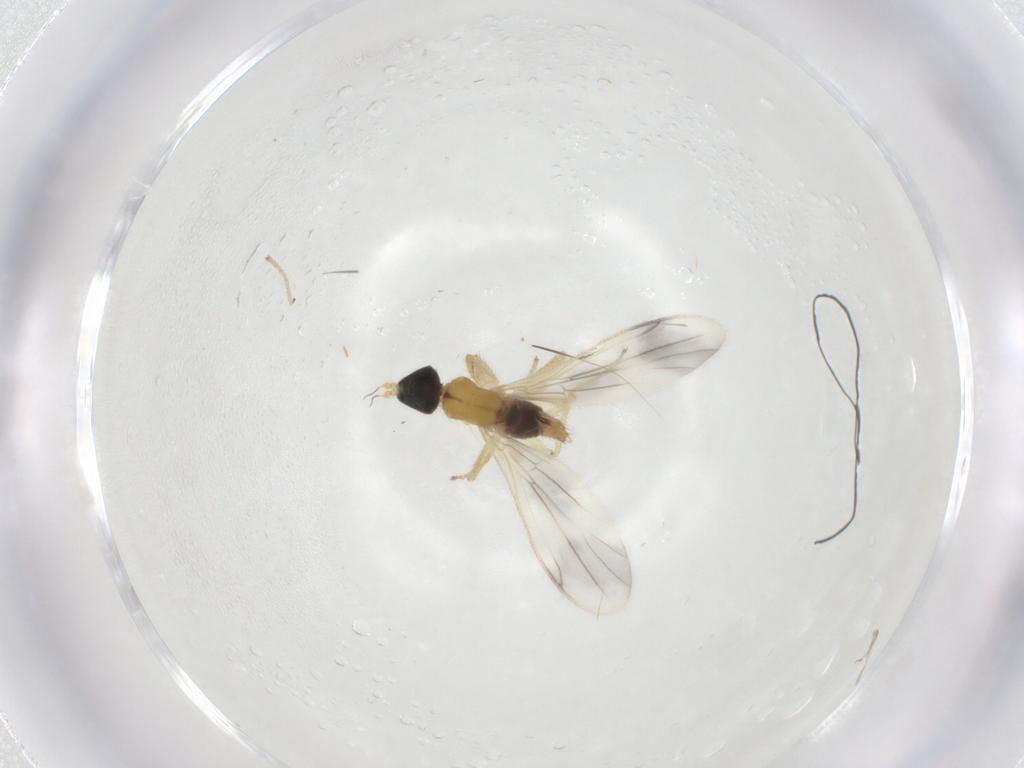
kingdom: Animalia
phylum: Arthropoda
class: Insecta
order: Diptera
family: Empididae
